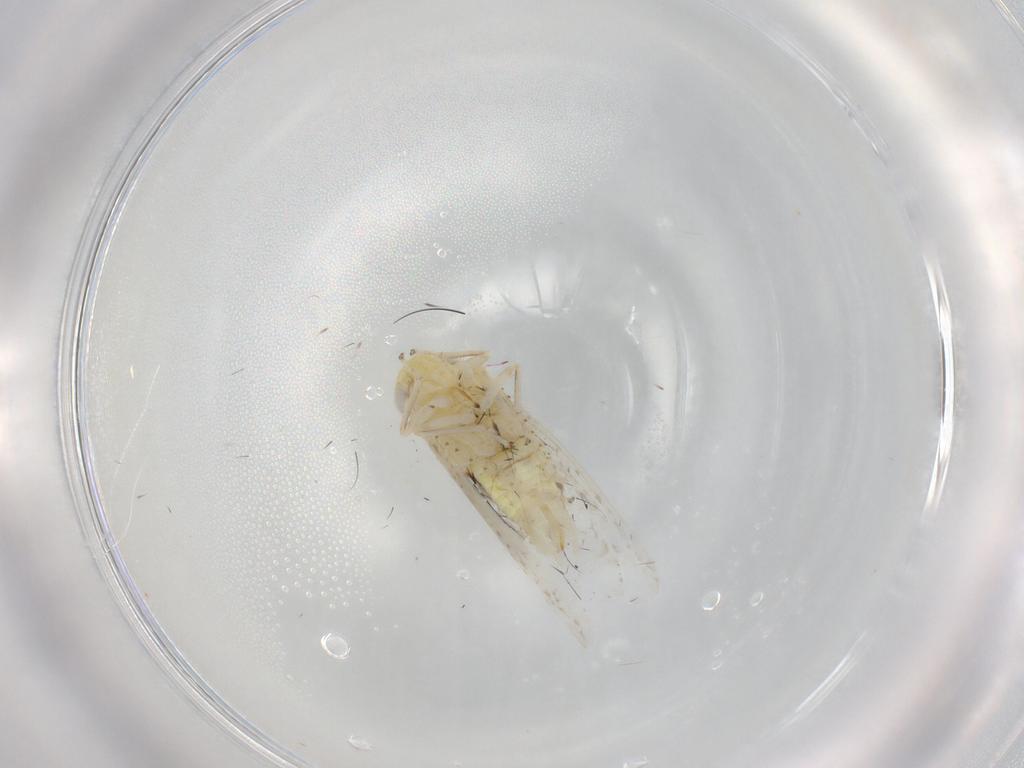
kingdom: Animalia
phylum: Arthropoda
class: Insecta
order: Hemiptera
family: Cicadellidae
